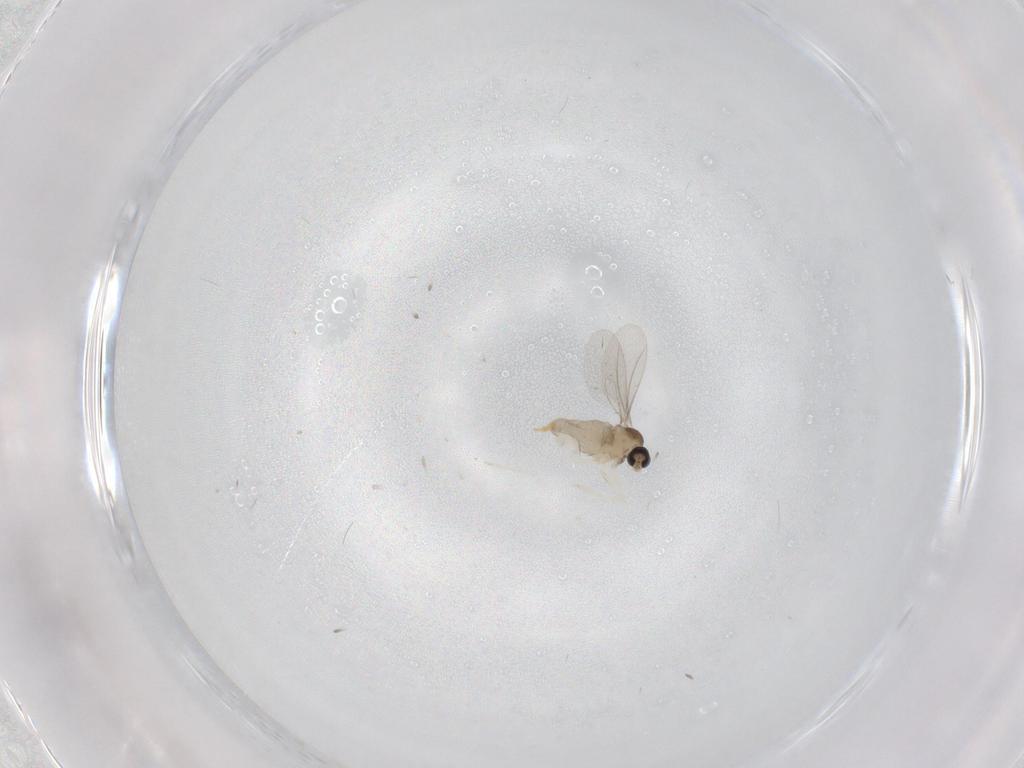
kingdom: Animalia
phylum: Arthropoda
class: Insecta
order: Diptera
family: Cecidomyiidae
